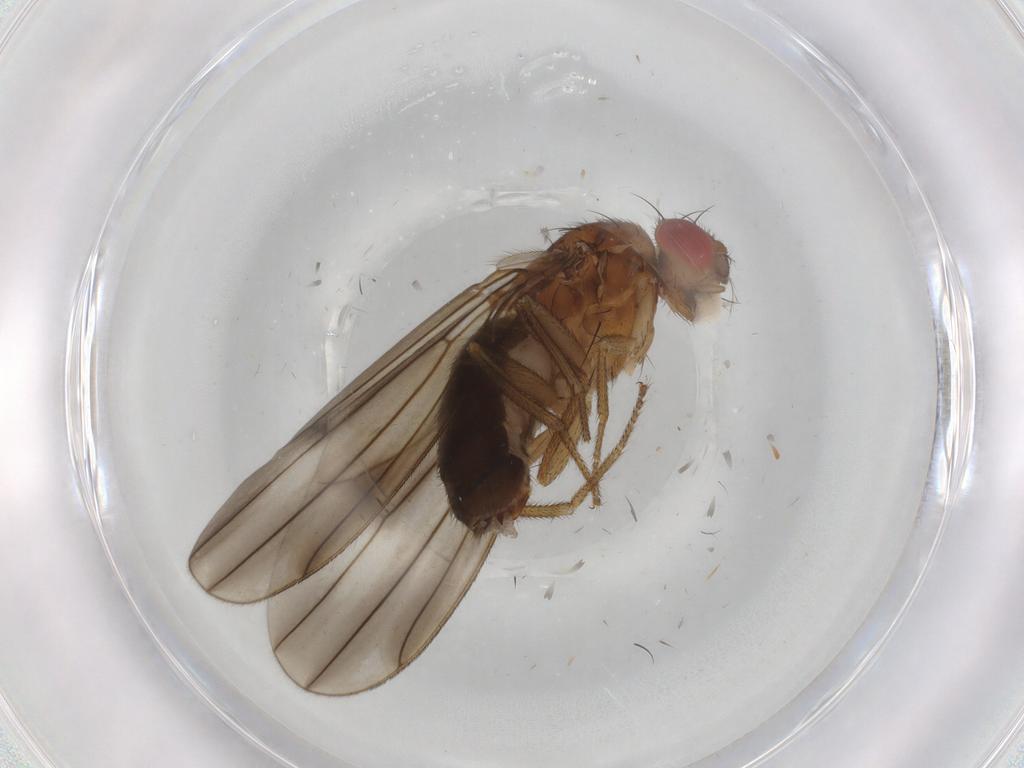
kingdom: Animalia
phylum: Arthropoda
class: Insecta
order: Diptera
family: Drosophilidae
